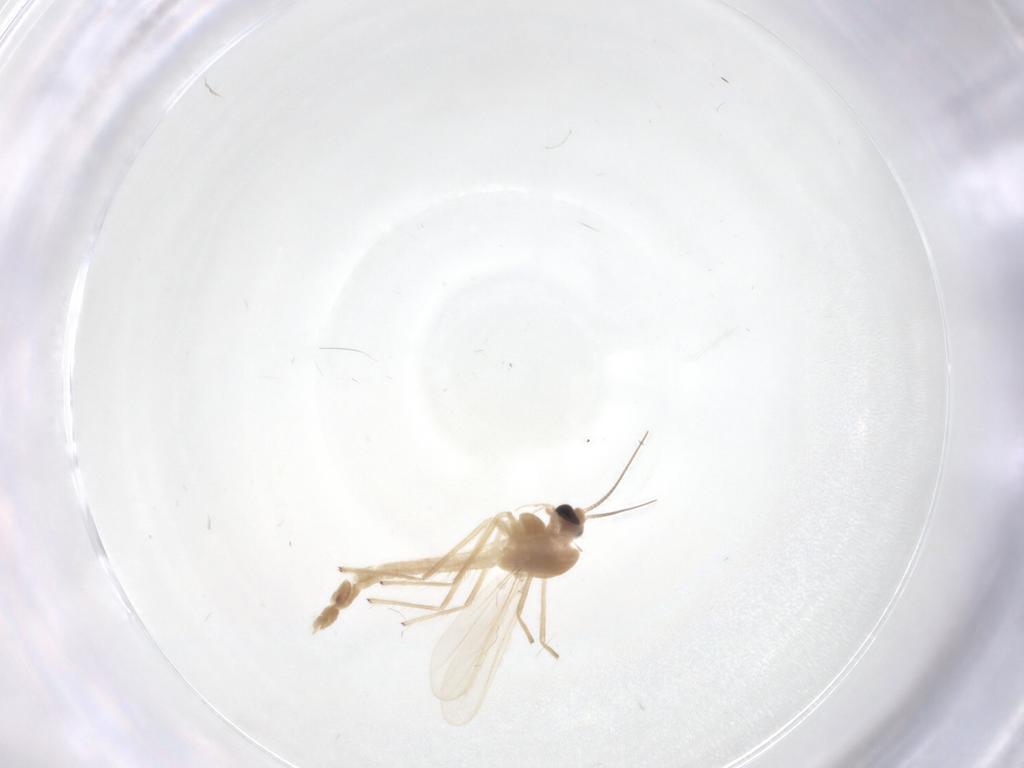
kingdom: Animalia
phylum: Arthropoda
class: Insecta
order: Diptera
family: Chironomidae
